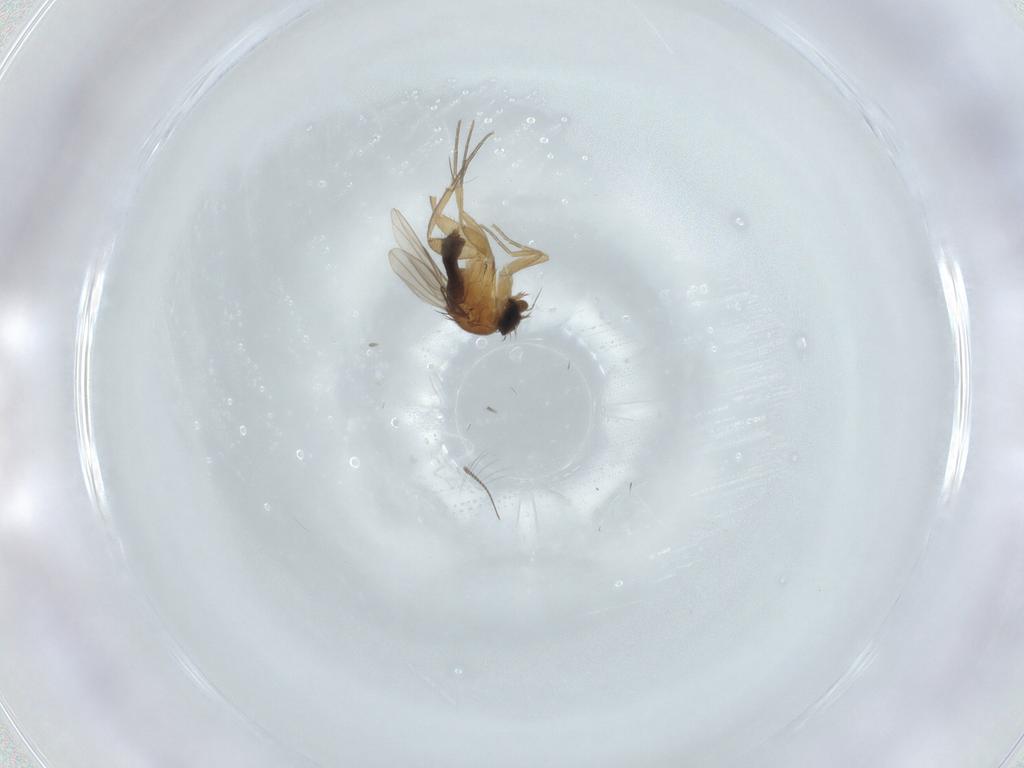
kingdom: Animalia
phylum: Arthropoda
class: Insecta
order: Diptera
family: Chironomidae
